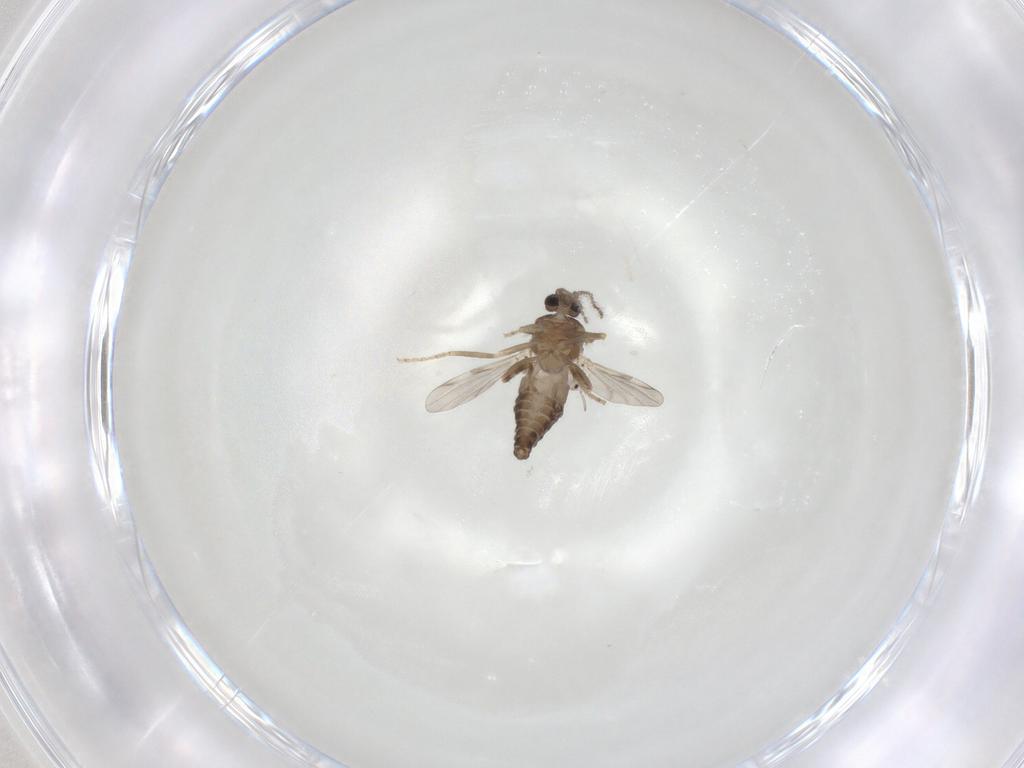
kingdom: Animalia
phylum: Arthropoda
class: Insecta
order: Diptera
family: Ceratopogonidae
